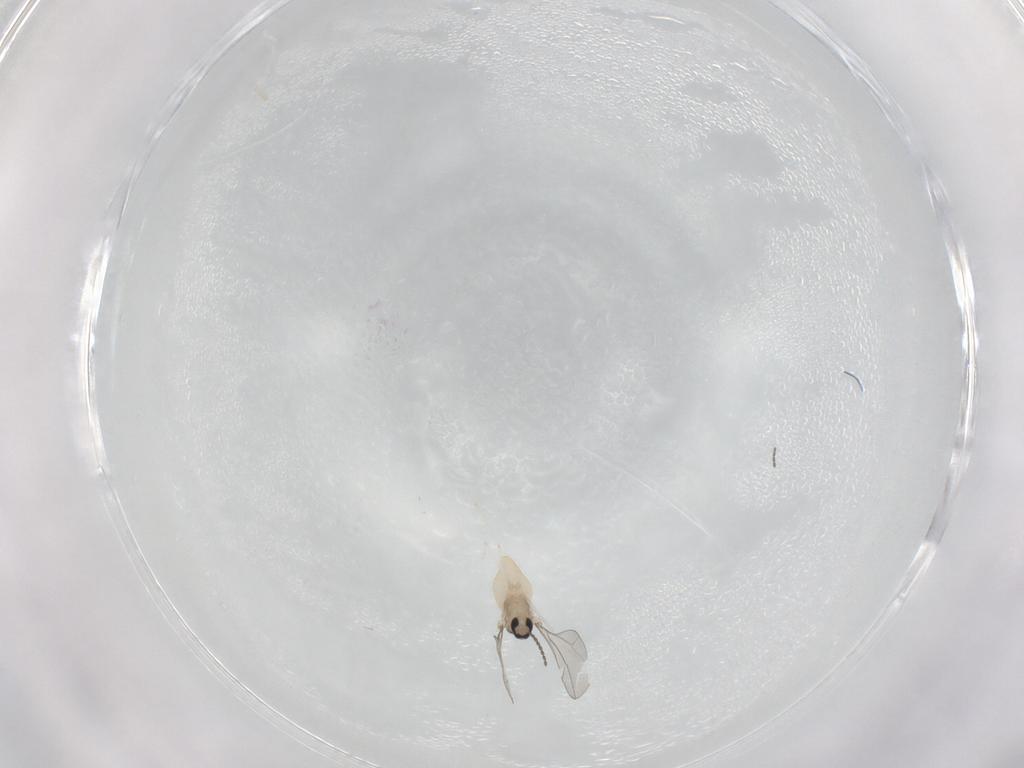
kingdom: Animalia
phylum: Arthropoda
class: Insecta
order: Diptera
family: Cecidomyiidae
